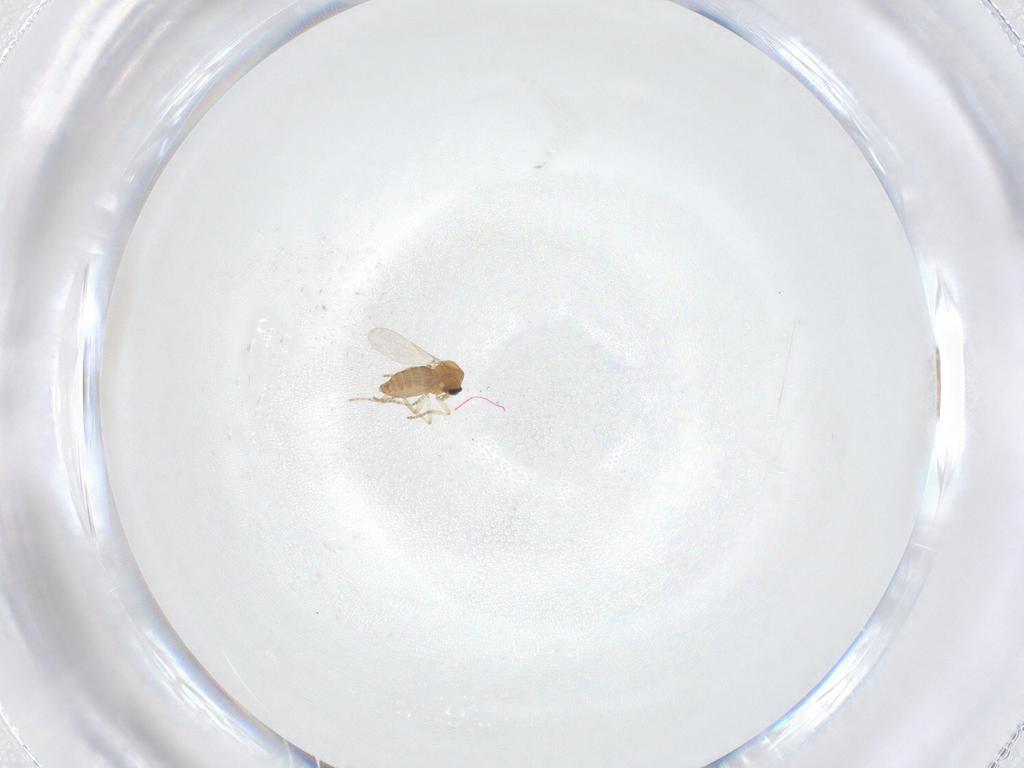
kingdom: Animalia
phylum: Arthropoda
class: Insecta
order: Diptera
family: Ceratopogonidae
